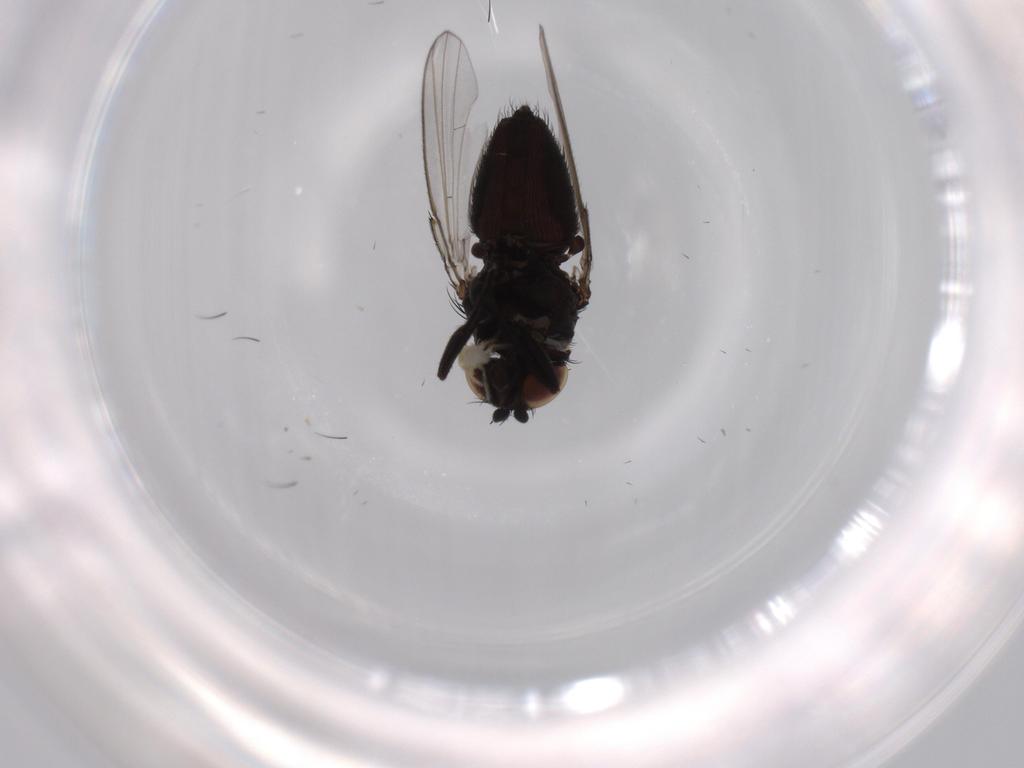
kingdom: Animalia
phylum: Arthropoda
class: Insecta
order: Diptera
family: Milichiidae
